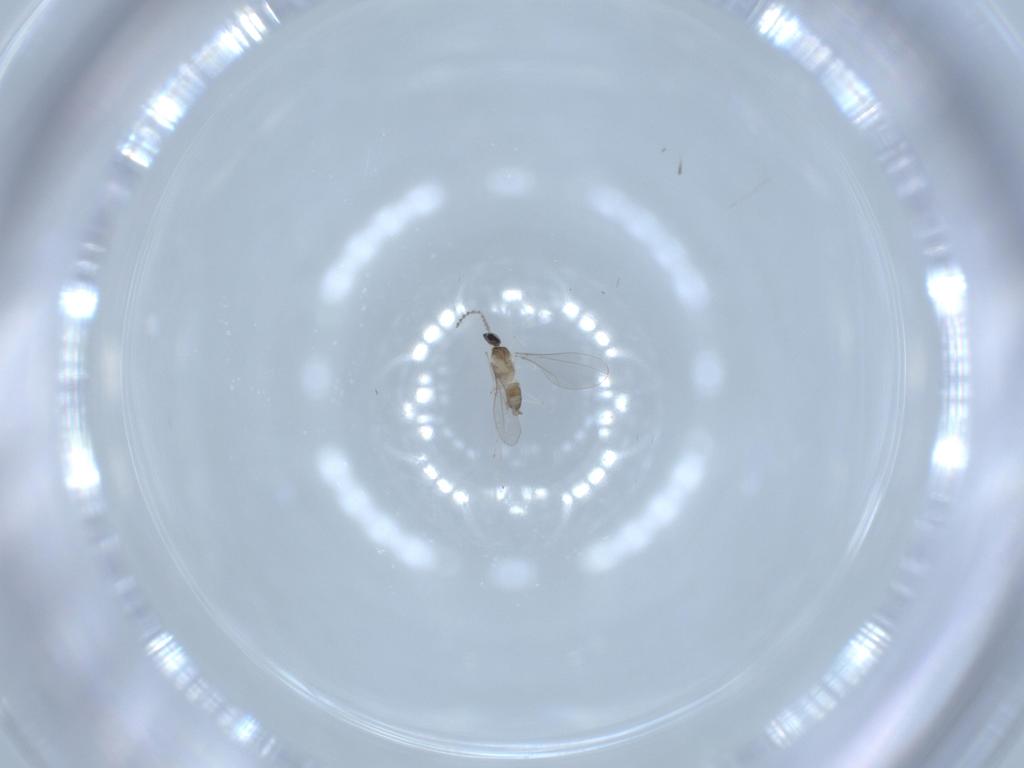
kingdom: Animalia
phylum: Arthropoda
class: Insecta
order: Diptera
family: Cecidomyiidae
